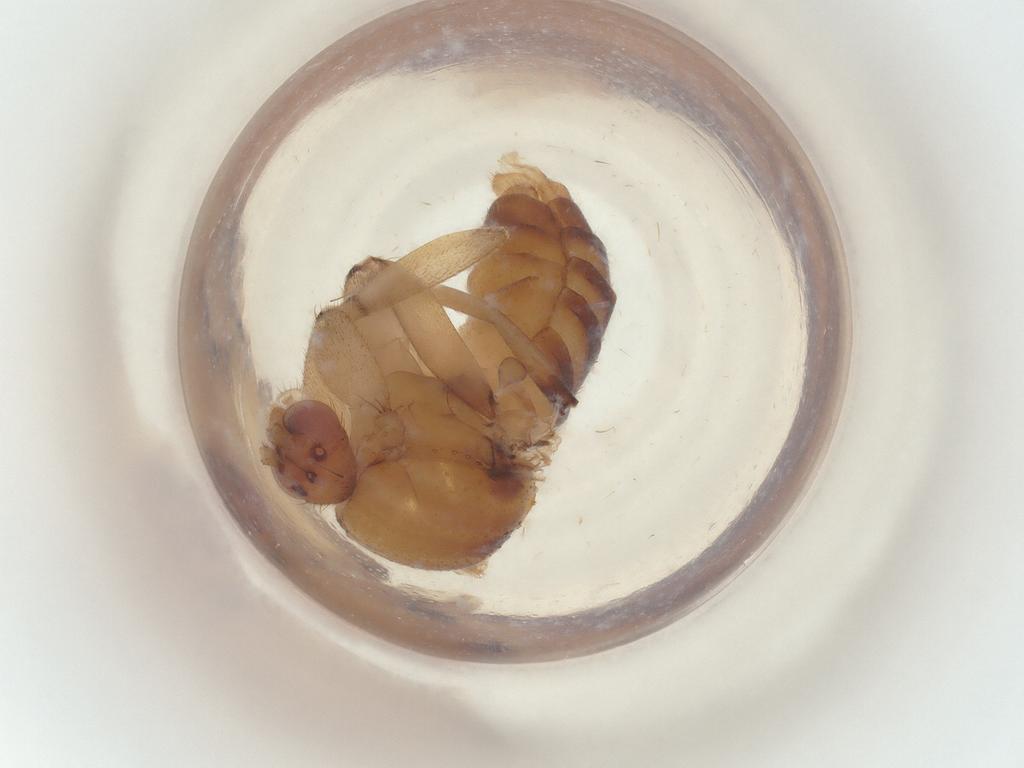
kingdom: Animalia
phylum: Arthropoda
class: Insecta
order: Diptera
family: Mycetophilidae
